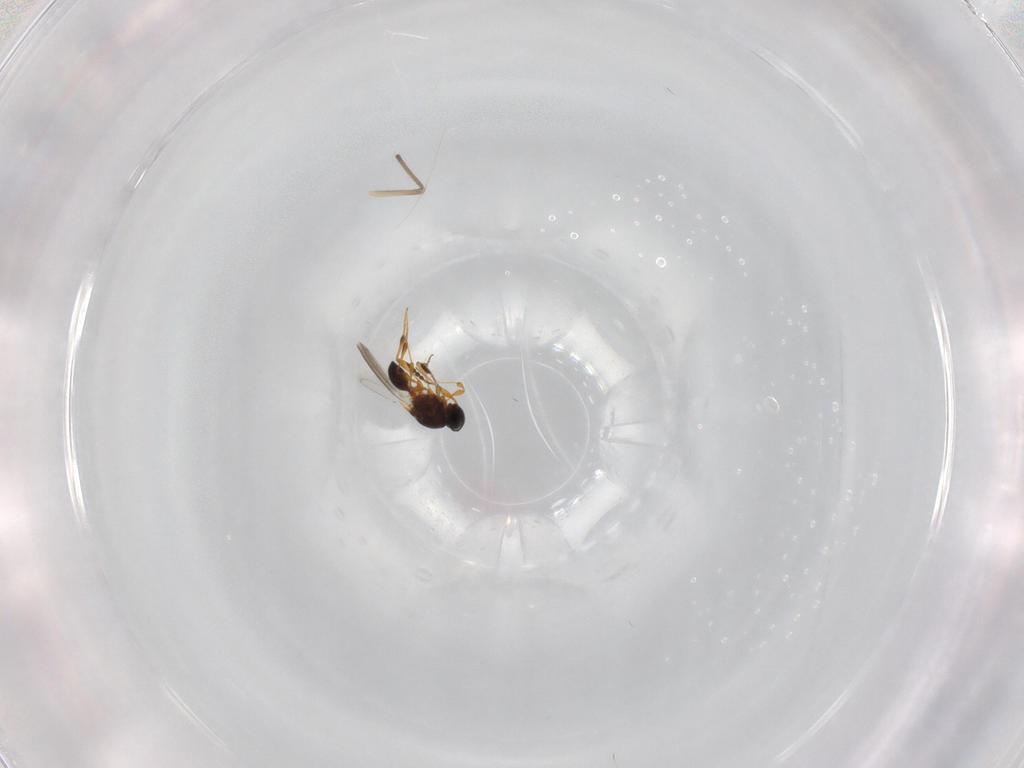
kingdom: Animalia
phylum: Arthropoda
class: Insecta
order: Hymenoptera
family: Platygastridae
